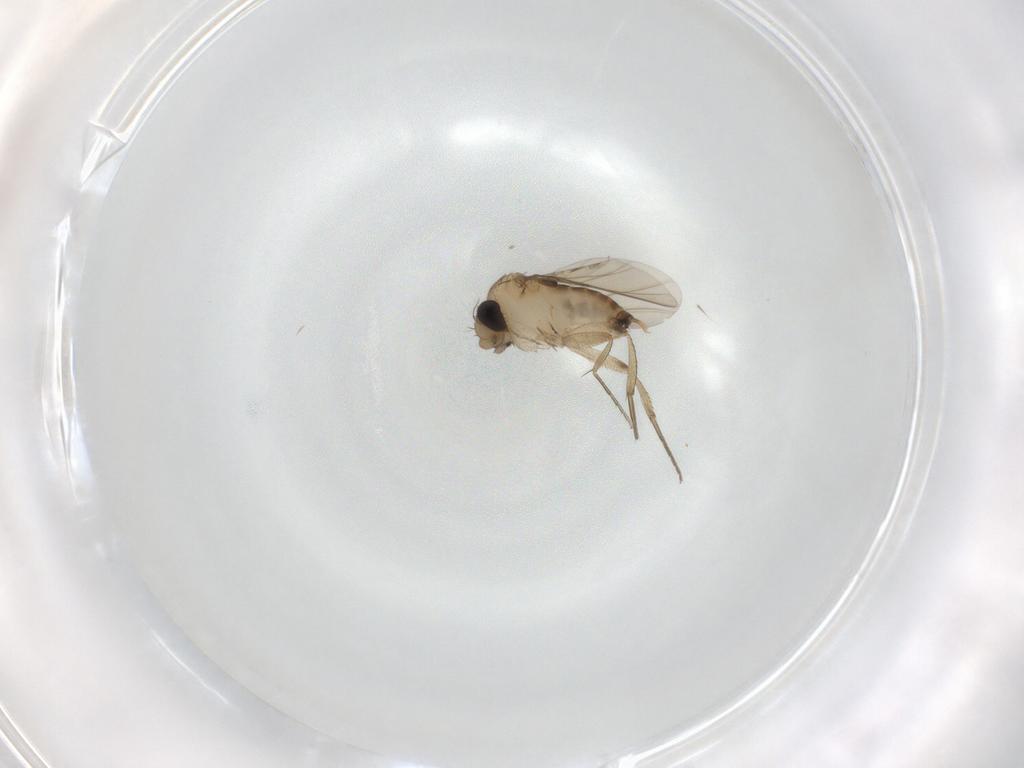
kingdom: Animalia
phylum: Arthropoda
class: Insecta
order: Diptera
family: Phoridae
